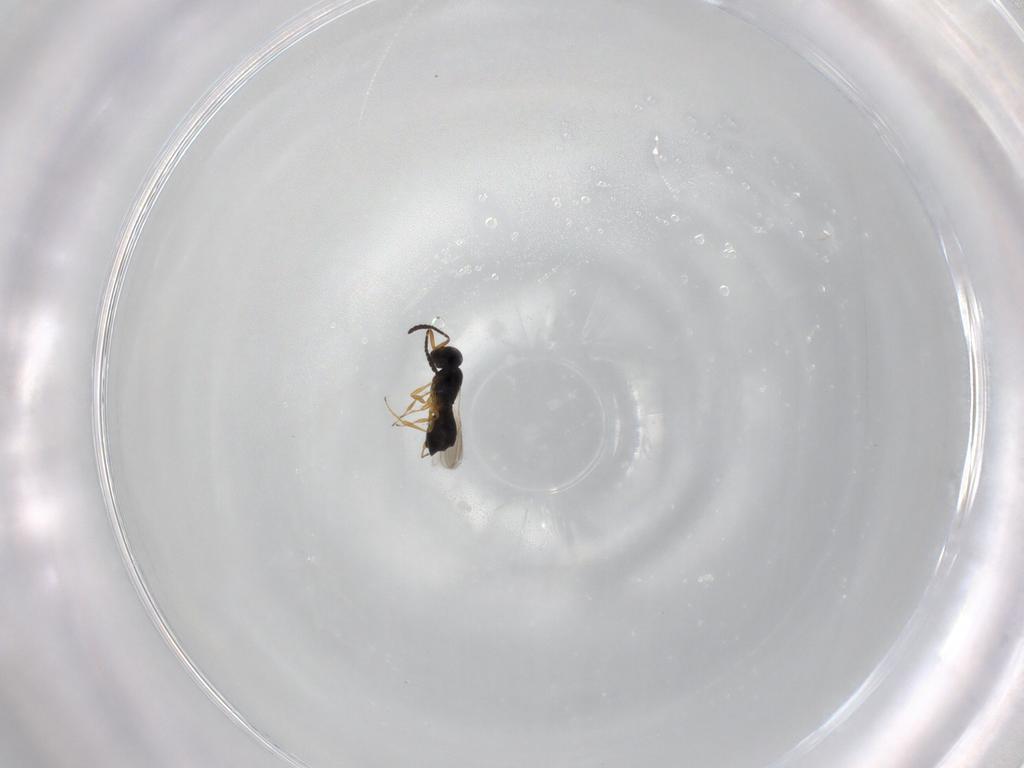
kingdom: Animalia
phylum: Arthropoda
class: Insecta
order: Hymenoptera
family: Scelionidae
